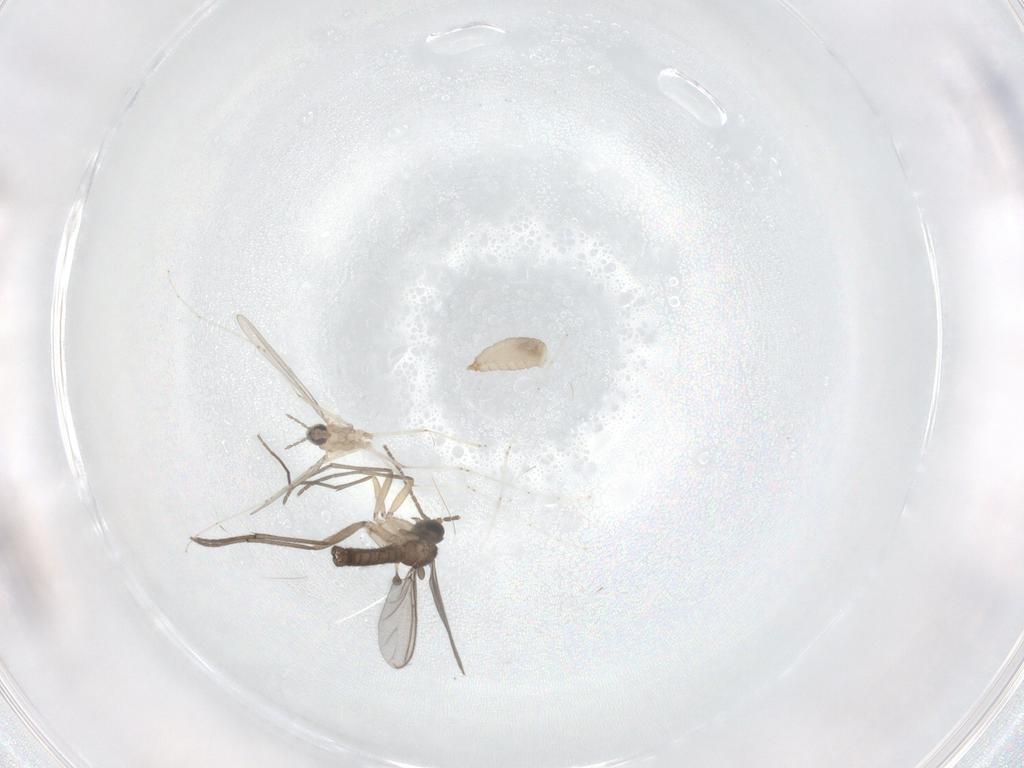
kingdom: Animalia
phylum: Arthropoda
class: Insecta
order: Diptera
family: Cecidomyiidae
